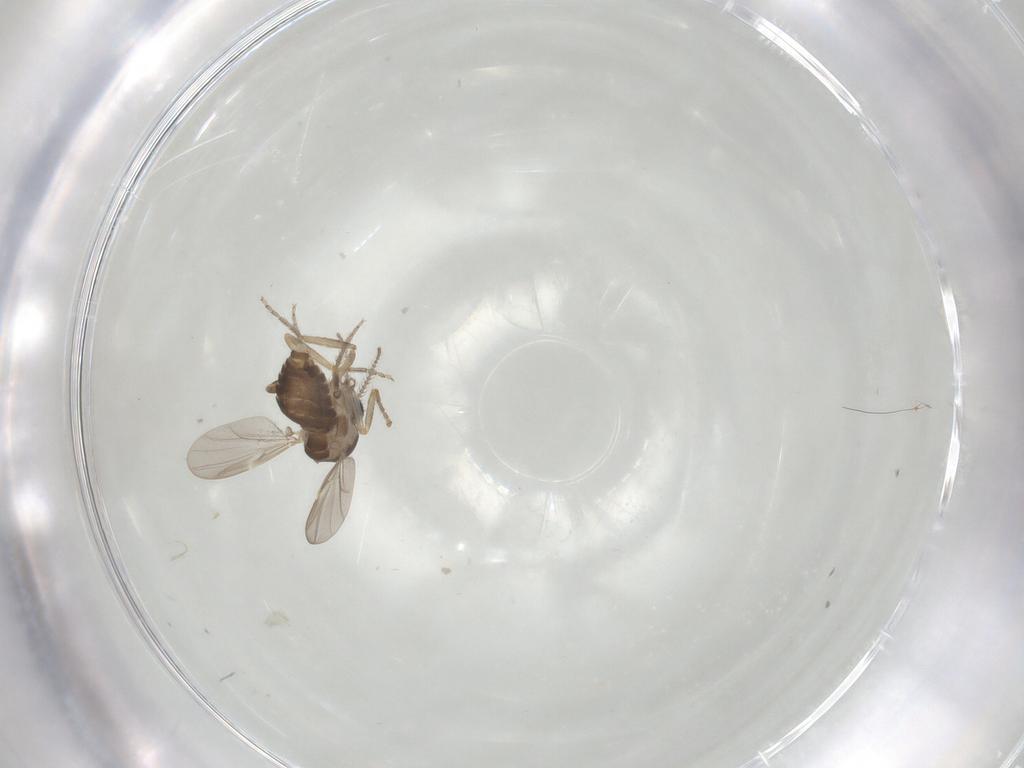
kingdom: Animalia
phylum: Arthropoda
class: Insecta
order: Diptera
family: Ceratopogonidae
